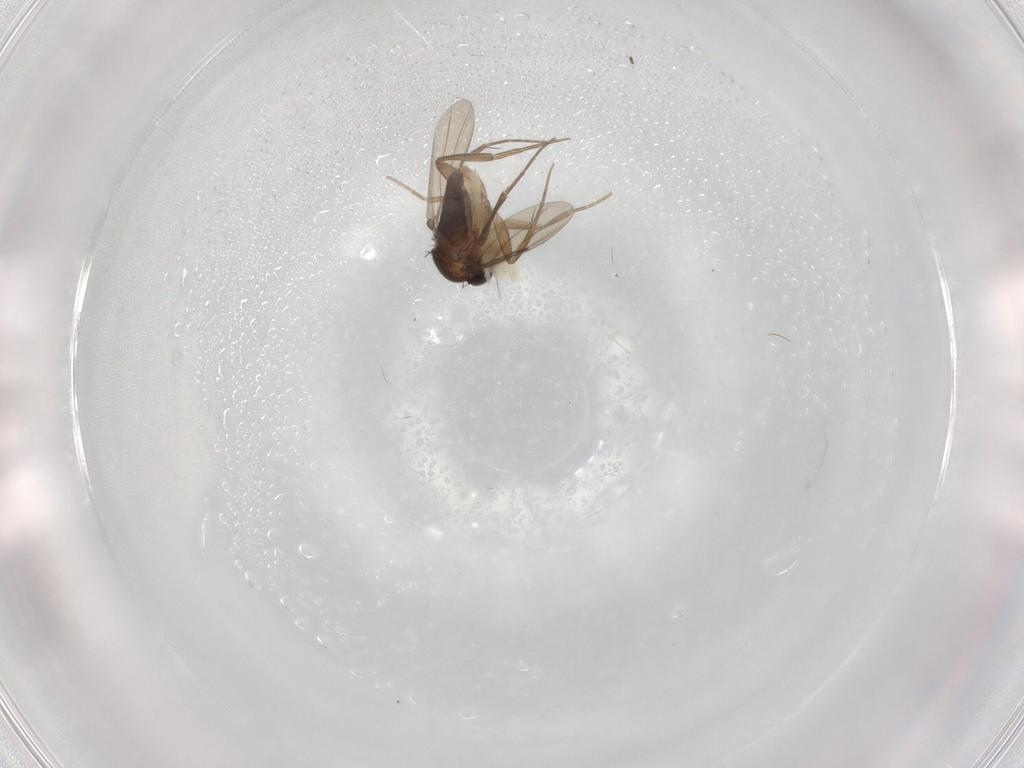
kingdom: Animalia
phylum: Arthropoda
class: Insecta
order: Diptera
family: Phoridae
